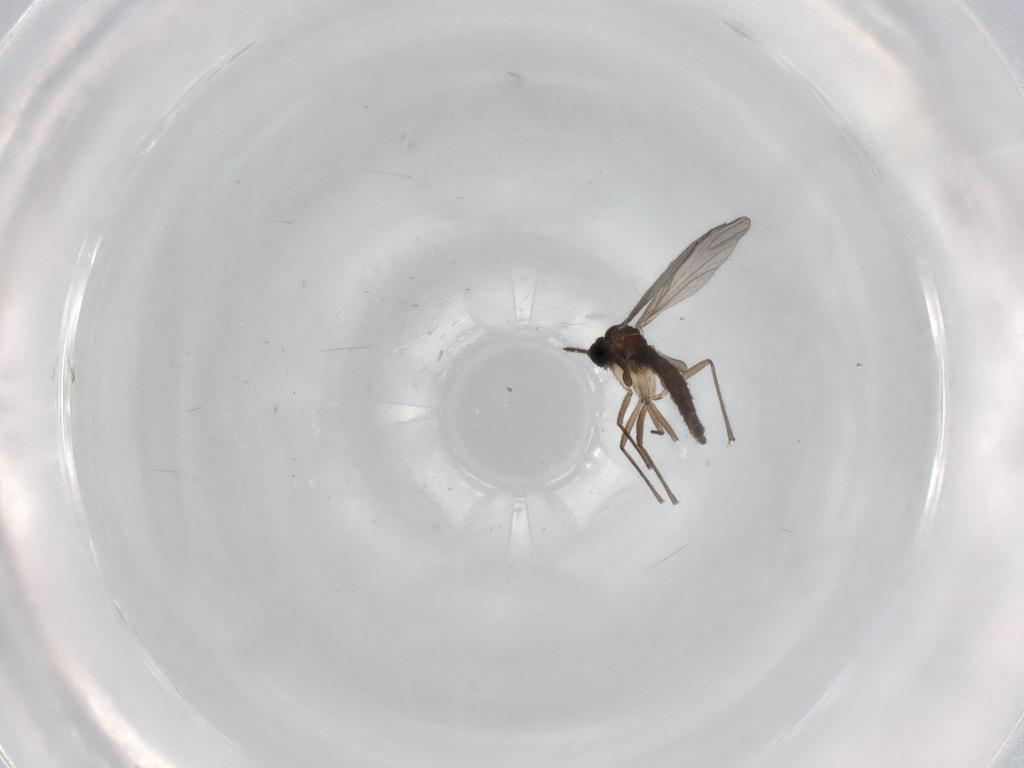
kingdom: Animalia
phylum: Arthropoda
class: Insecta
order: Diptera
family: Sciaridae
